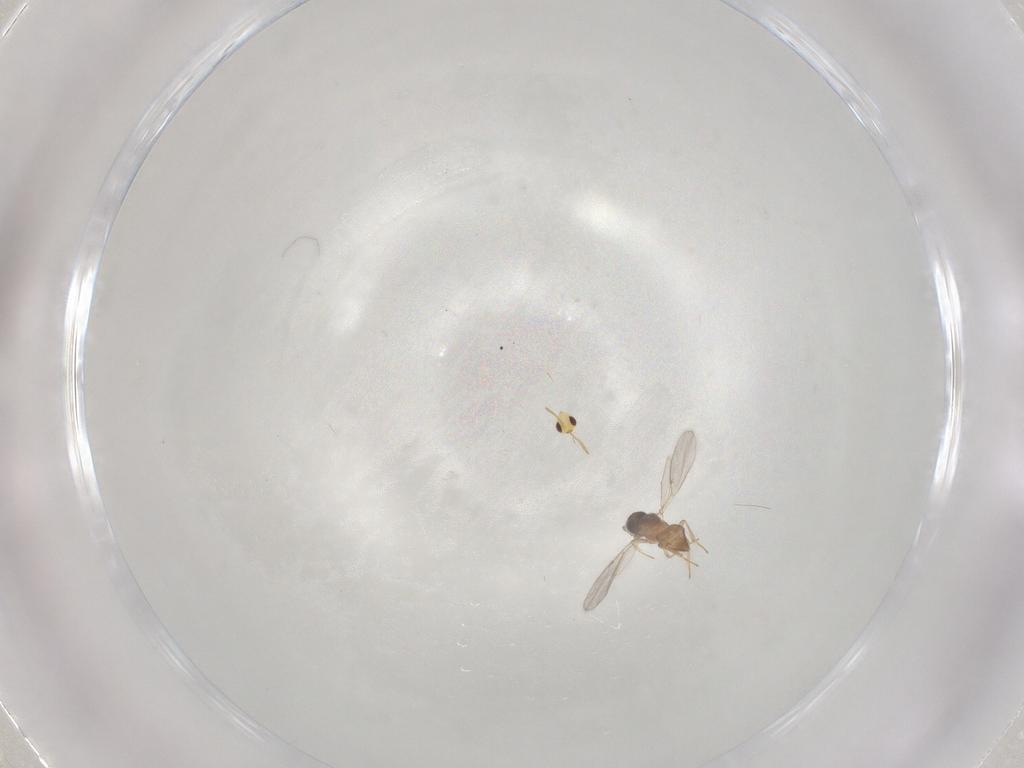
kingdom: Animalia
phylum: Arthropoda
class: Insecta
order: Hymenoptera
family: Aphelinidae
